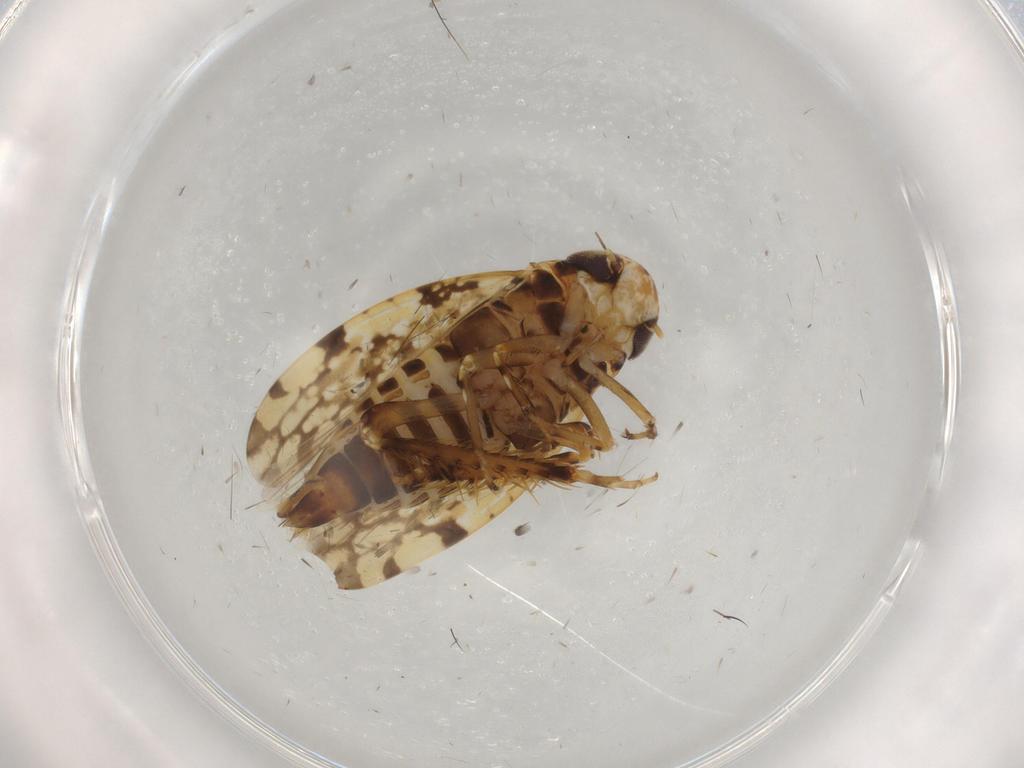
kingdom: Animalia
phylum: Arthropoda
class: Insecta
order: Hemiptera
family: Cicadellidae
